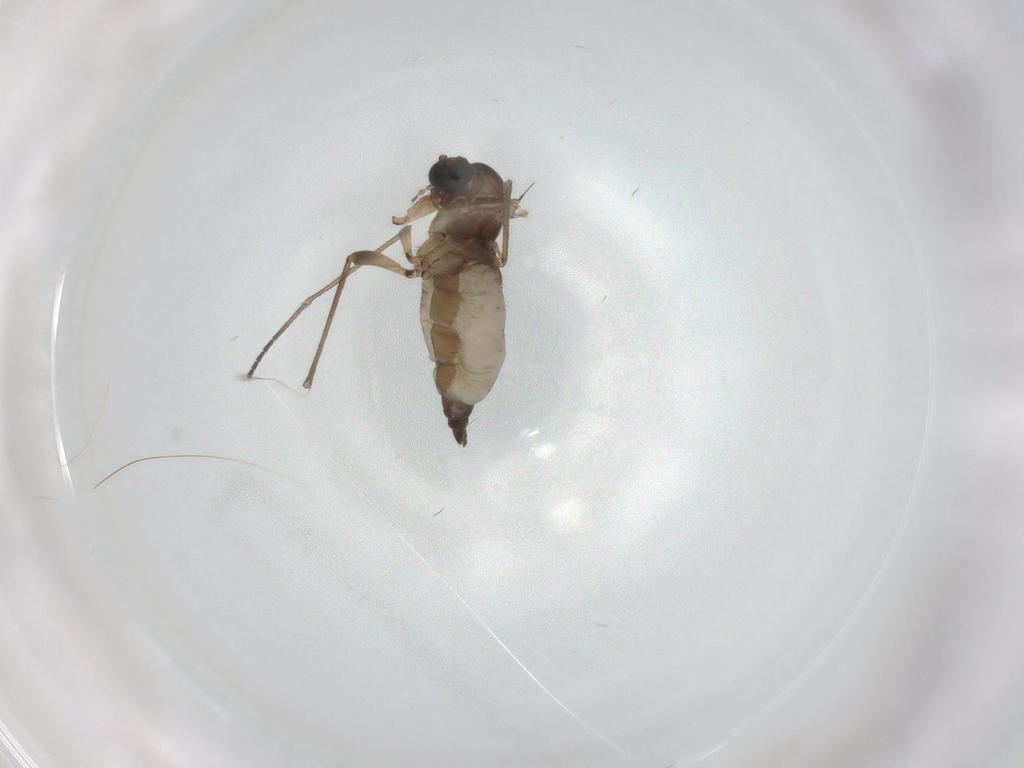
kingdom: Animalia
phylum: Arthropoda
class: Insecta
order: Diptera
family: Sciaridae
